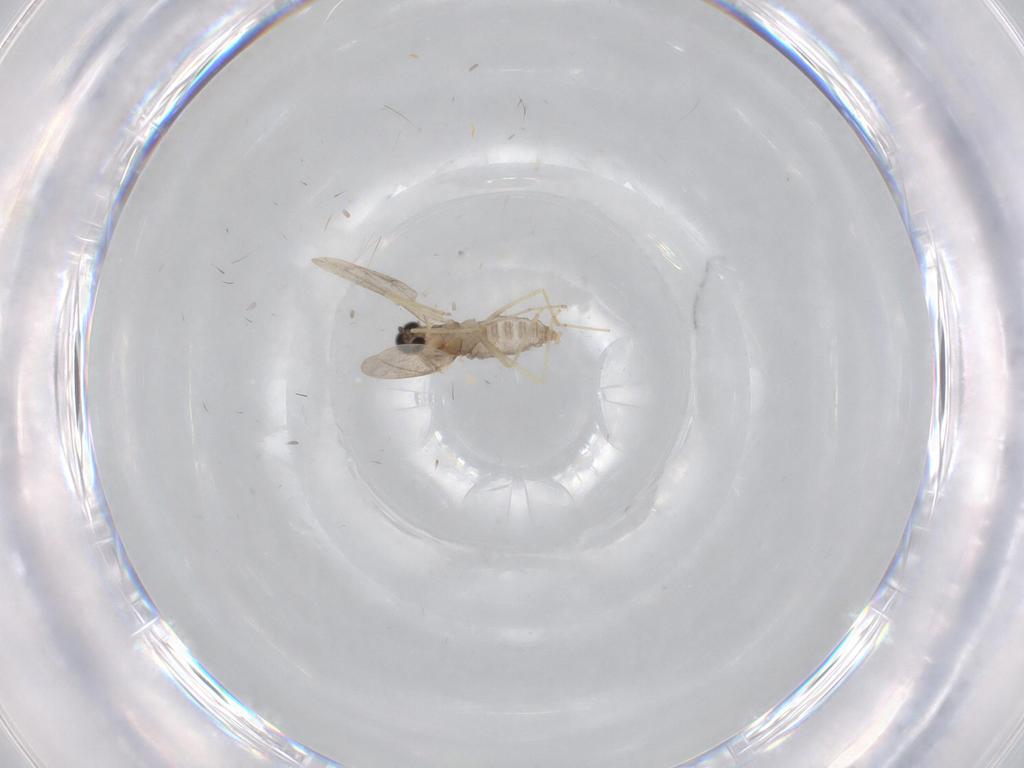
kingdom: Animalia
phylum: Arthropoda
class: Insecta
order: Diptera
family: Cecidomyiidae
